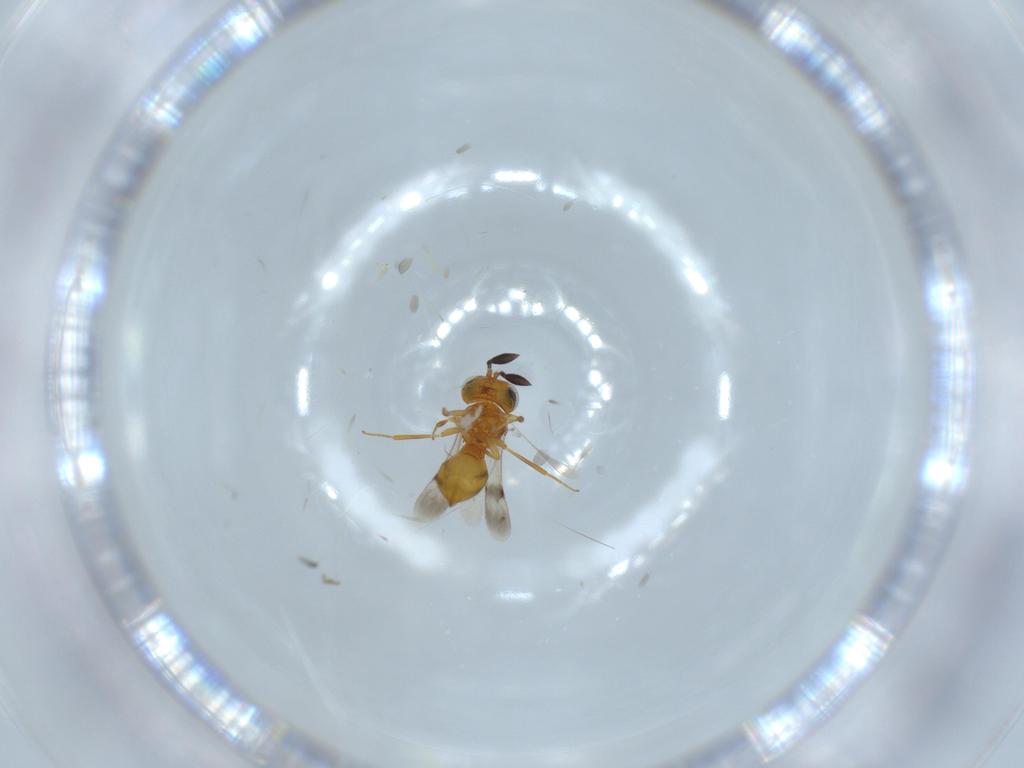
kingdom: Animalia
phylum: Arthropoda
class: Insecta
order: Hymenoptera
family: Scelionidae
